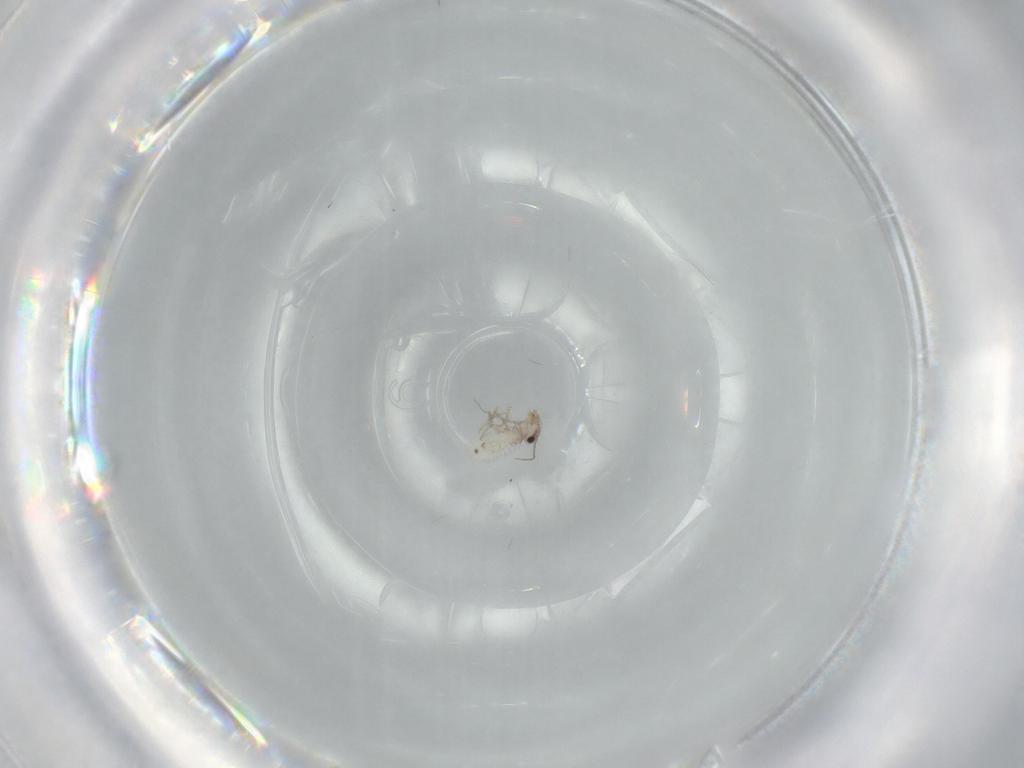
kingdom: Animalia
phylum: Arthropoda
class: Insecta
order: Psocodea
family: Lepidopsocidae
